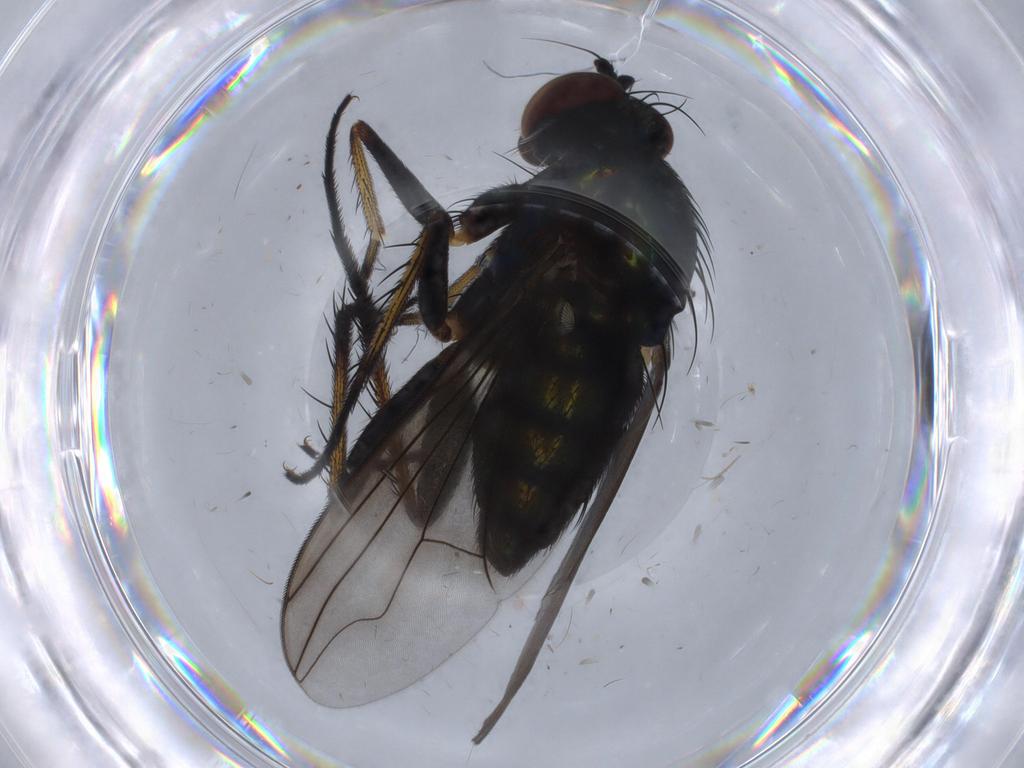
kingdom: Animalia
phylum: Arthropoda
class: Insecta
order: Diptera
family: Dolichopodidae
